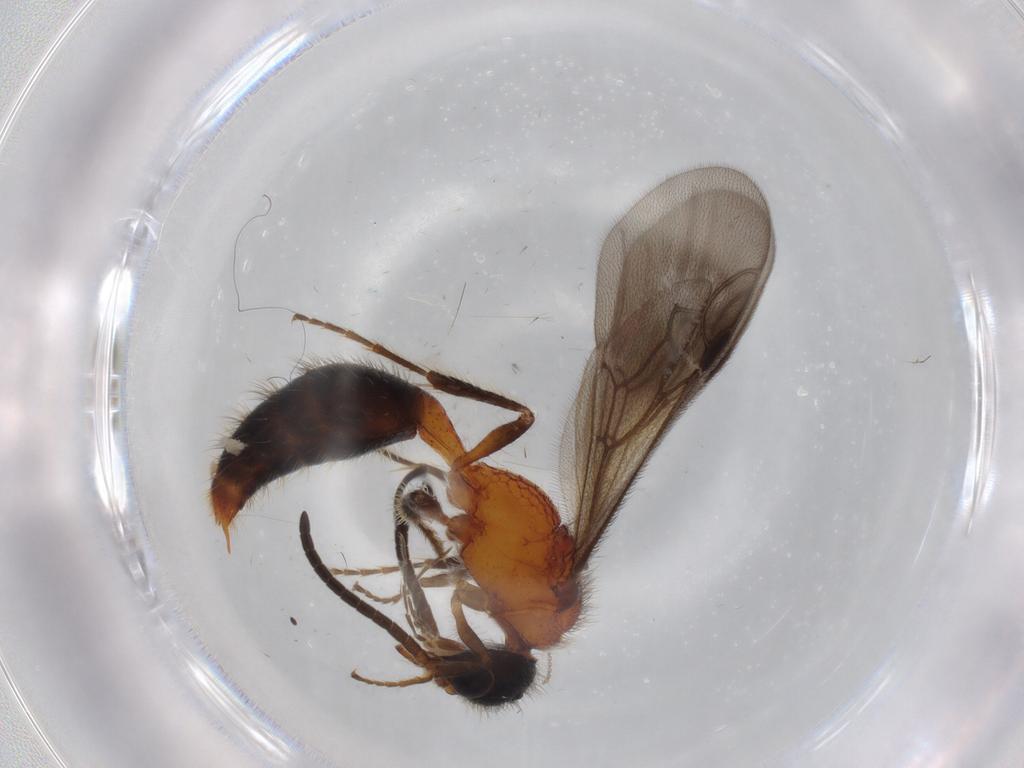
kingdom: Animalia
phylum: Arthropoda
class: Insecta
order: Hymenoptera
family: Mutillidae
